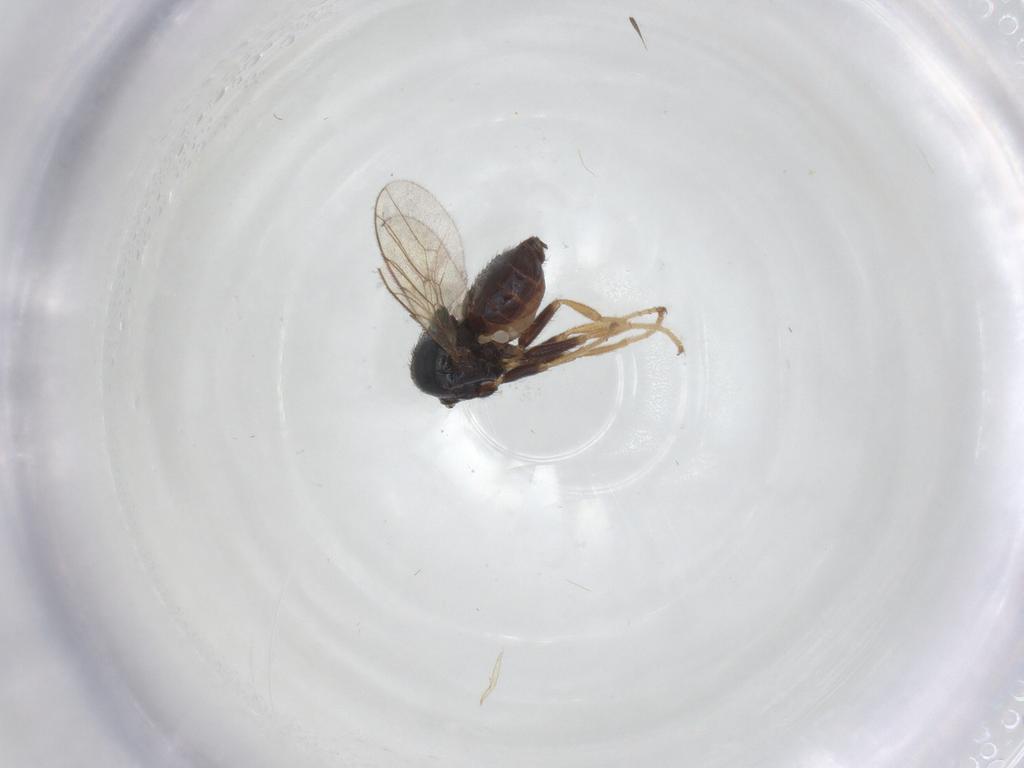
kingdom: Animalia
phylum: Arthropoda
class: Insecta
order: Diptera
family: Chloropidae
